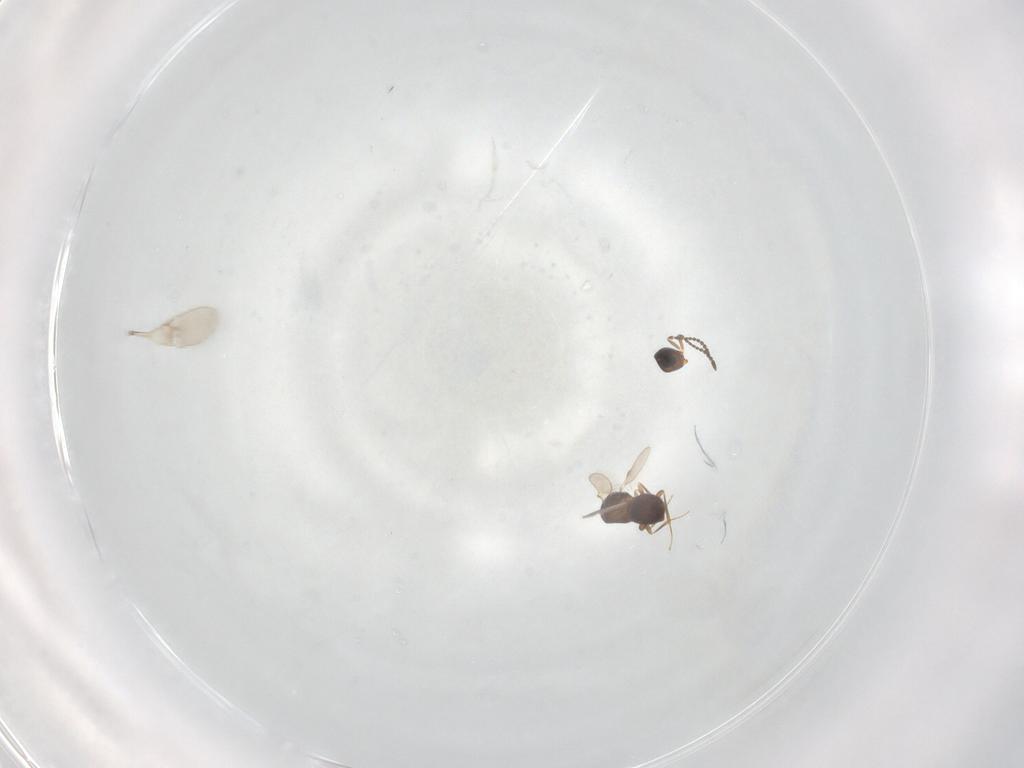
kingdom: Animalia
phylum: Arthropoda
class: Insecta
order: Hymenoptera
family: Scelionidae
